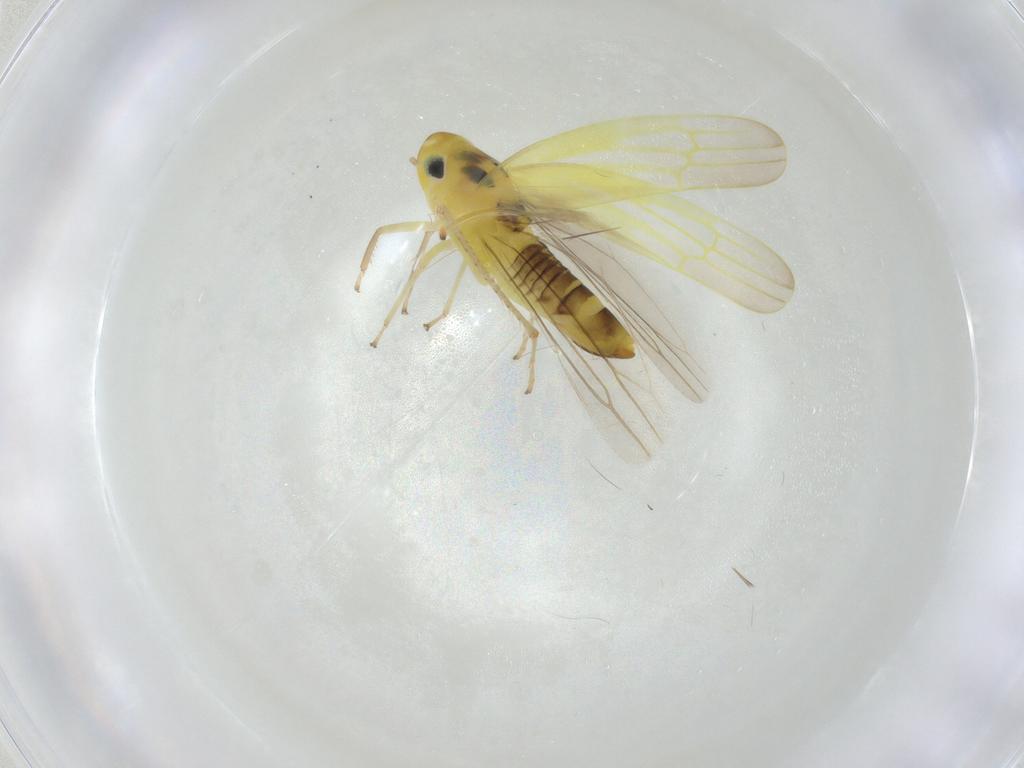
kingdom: Animalia
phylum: Arthropoda
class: Insecta
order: Hemiptera
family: Cicadellidae
